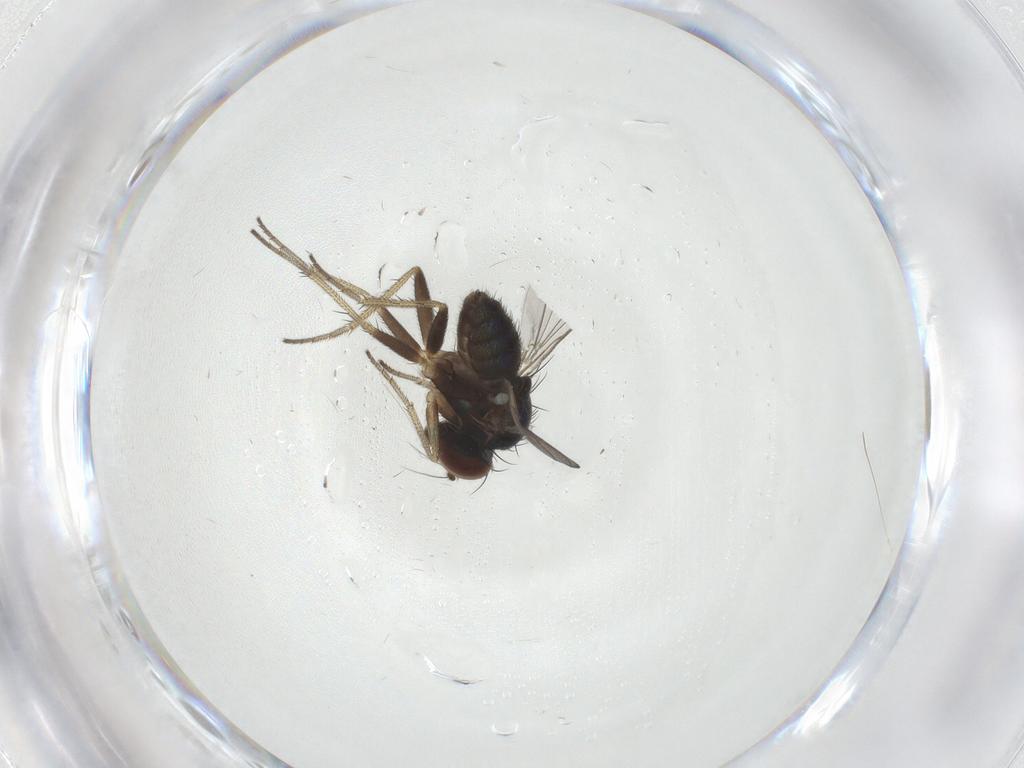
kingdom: Animalia
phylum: Arthropoda
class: Insecta
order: Diptera
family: Dolichopodidae
